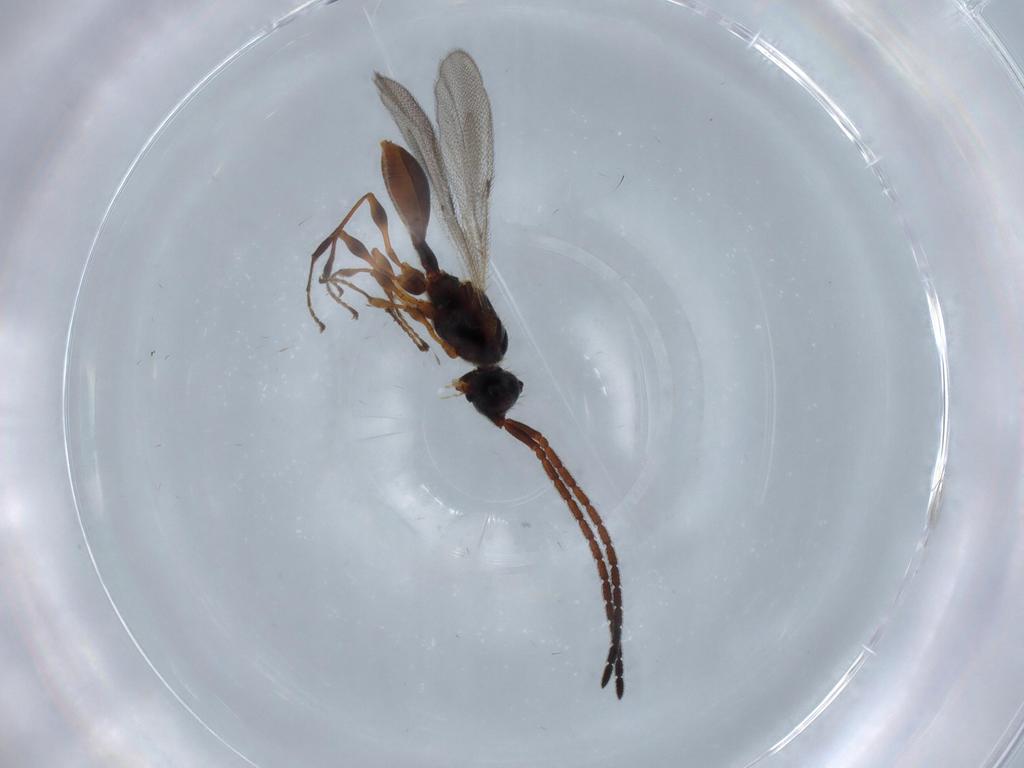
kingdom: Animalia
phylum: Arthropoda
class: Insecta
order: Hymenoptera
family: Diapriidae
